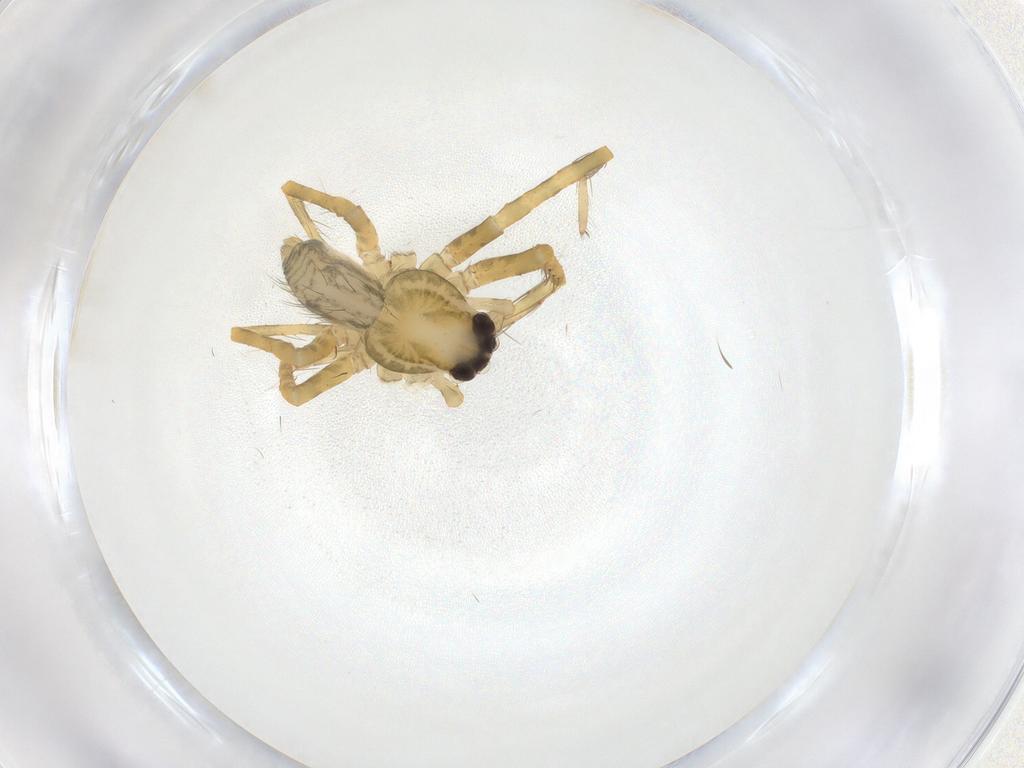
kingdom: Animalia
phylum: Arthropoda
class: Arachnida
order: Araneae
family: Trechaleidae
